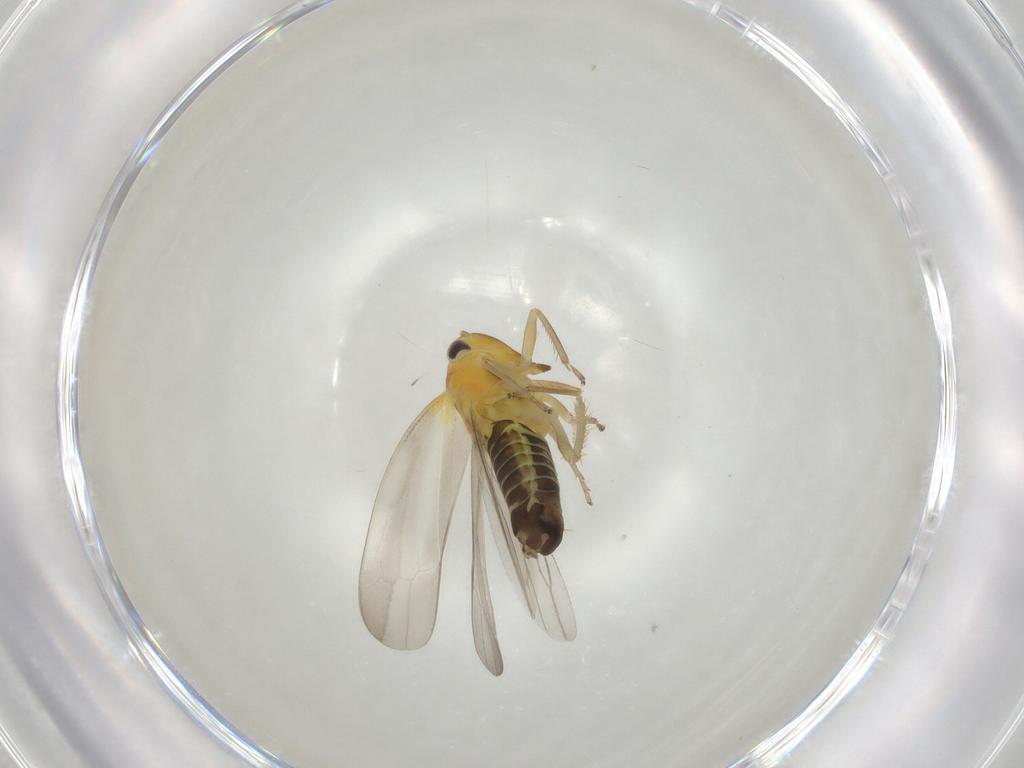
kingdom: Animalia
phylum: Arthropoda
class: Insecta
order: Hemiptera
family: Cicadellidae
